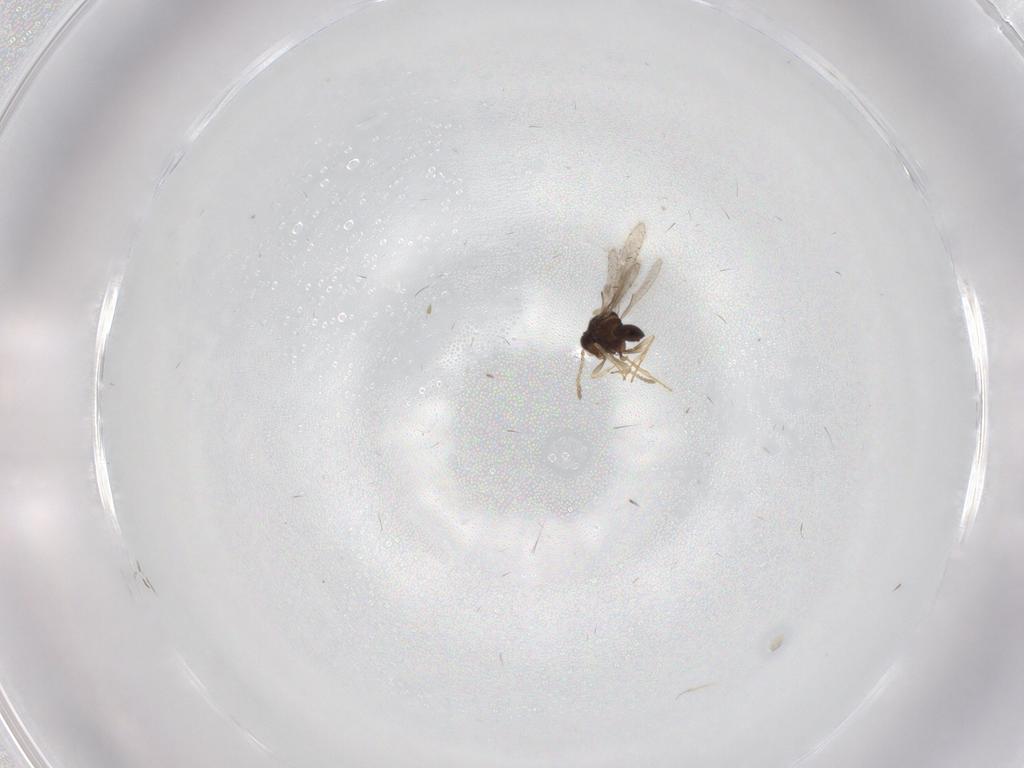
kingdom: Animalia
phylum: Arthropoda
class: Insecta
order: Hymenoptera
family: Scelionidae
